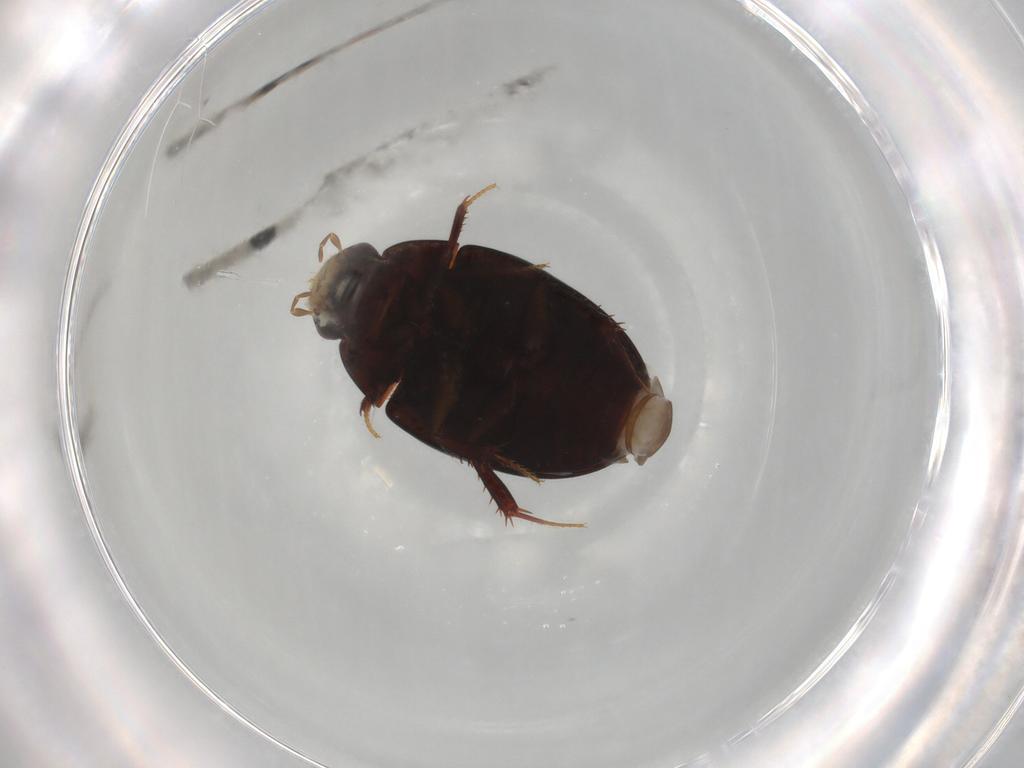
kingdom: Animalia
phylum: Arthropoda
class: Insecta
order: Coleoptera
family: Hydrophilidae
